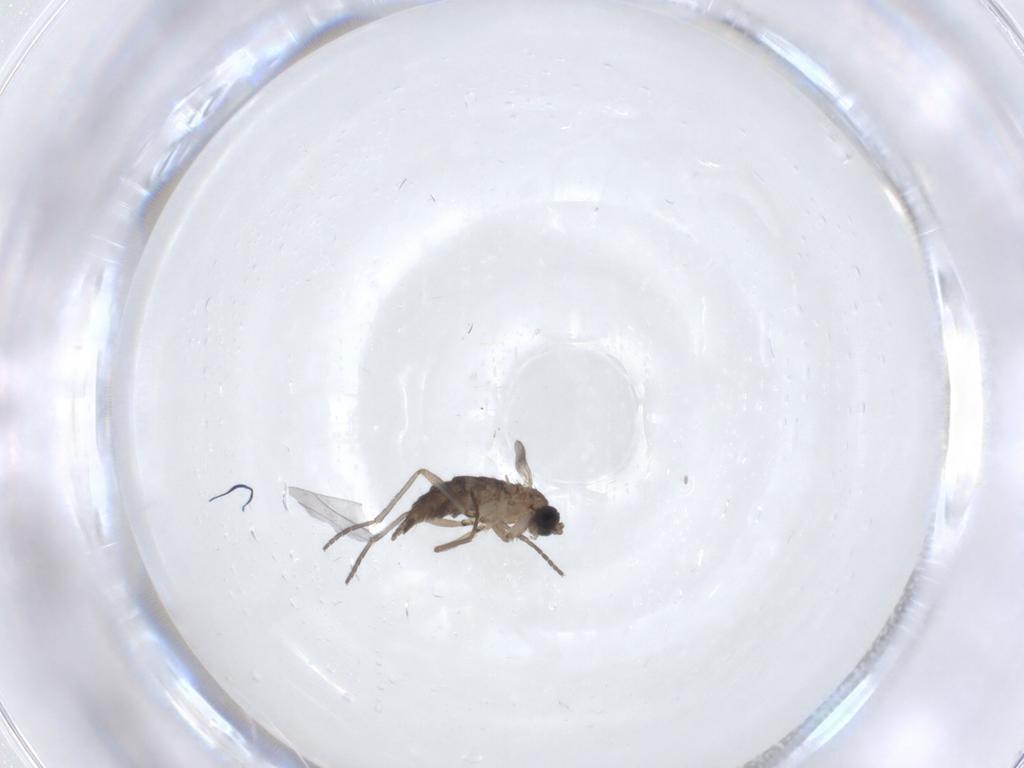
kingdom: Animalia
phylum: Arthropoda
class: Insecta
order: Diptera
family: Sciaridae
